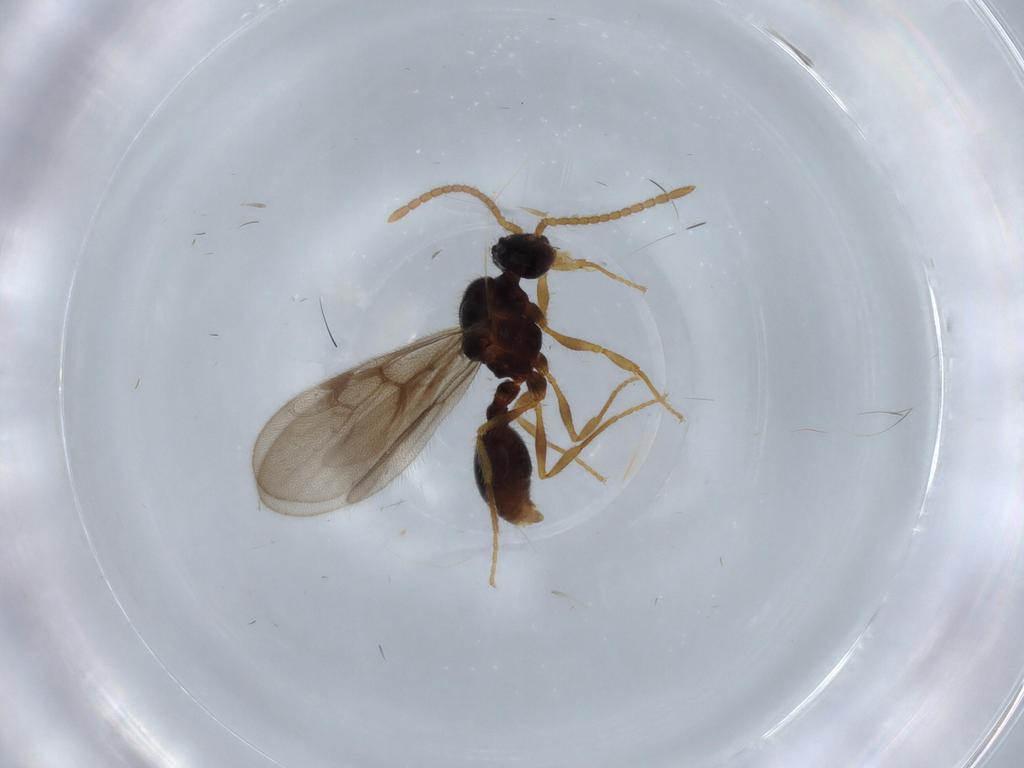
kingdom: Animalia
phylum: Arthropoda
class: Insecta
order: Hymenoptera
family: Formicidae
